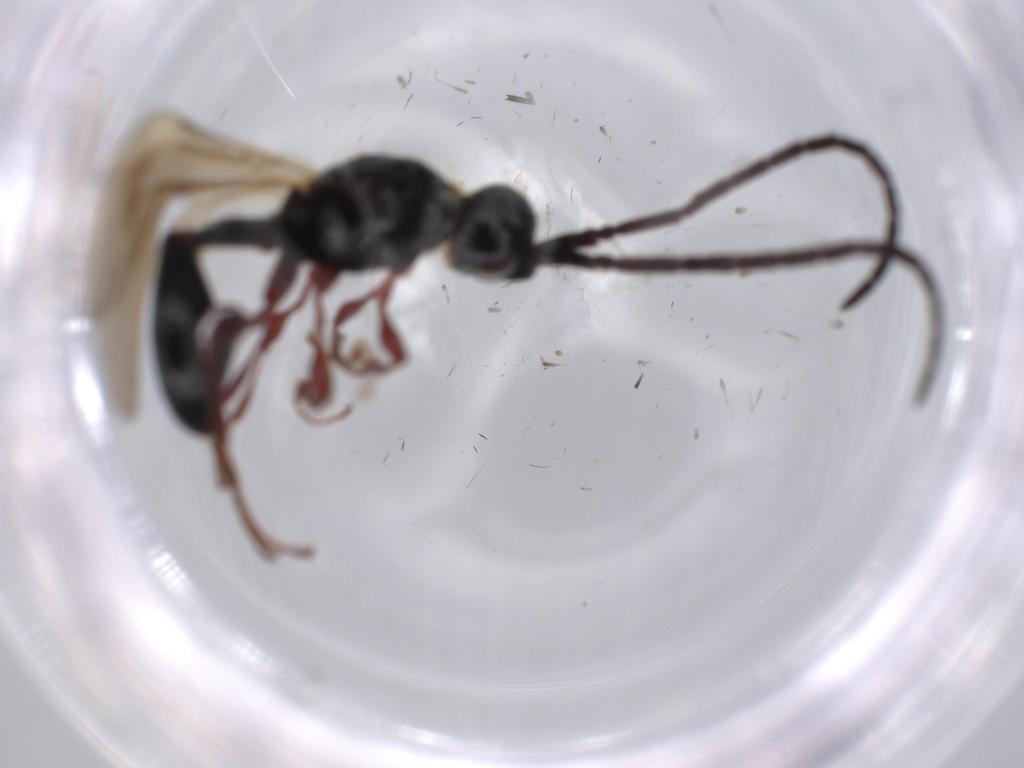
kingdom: Animalia
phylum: Arthropoda
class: Insecta
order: Hymenoptera
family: Diapriidae
